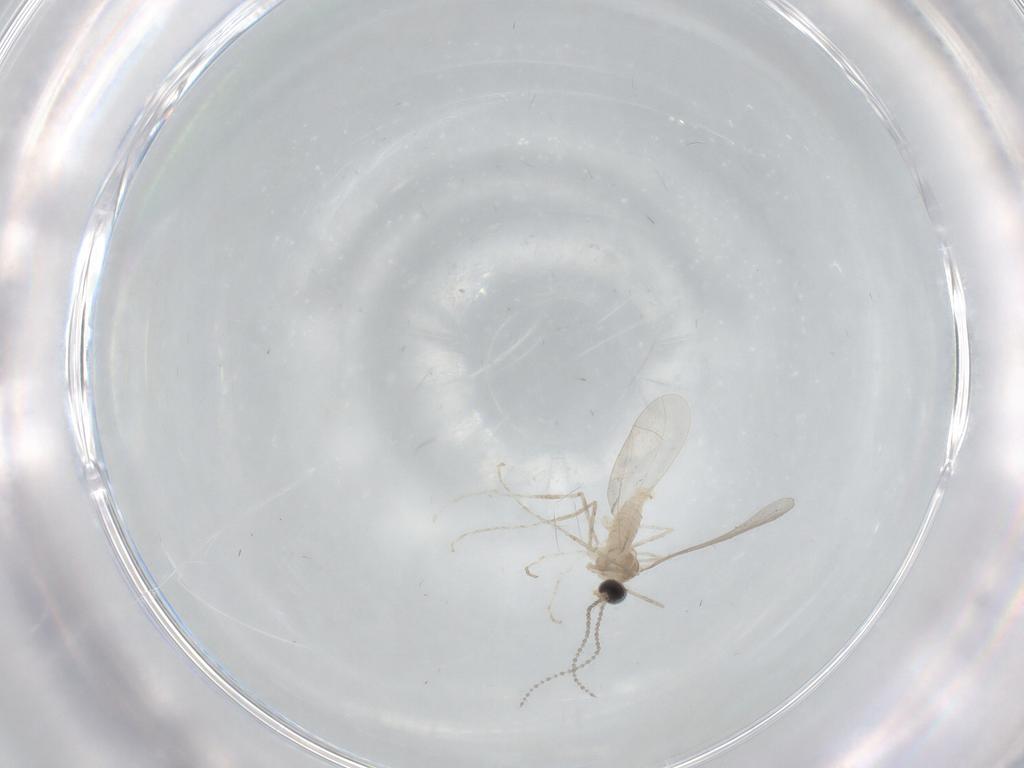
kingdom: Animalia
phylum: Arthropoda
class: Insecta
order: Diptera
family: Cecidomyiidae
